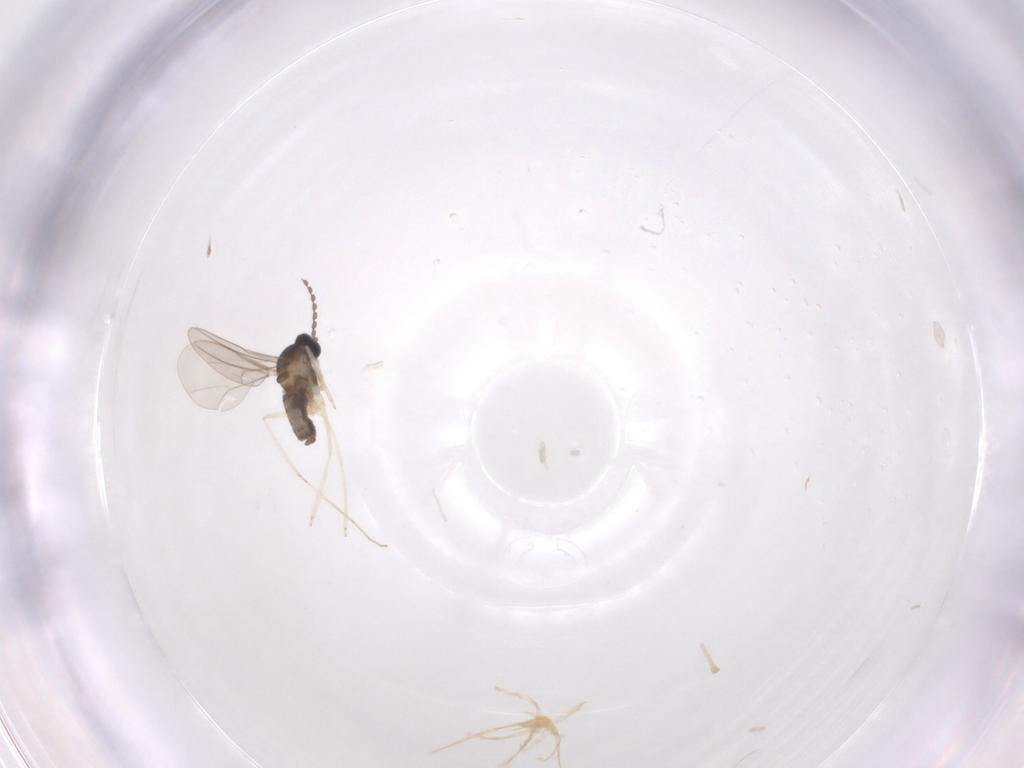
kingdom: Animalia
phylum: Arthropoda
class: Insecta
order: Diptera
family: Cecidomyiidae
